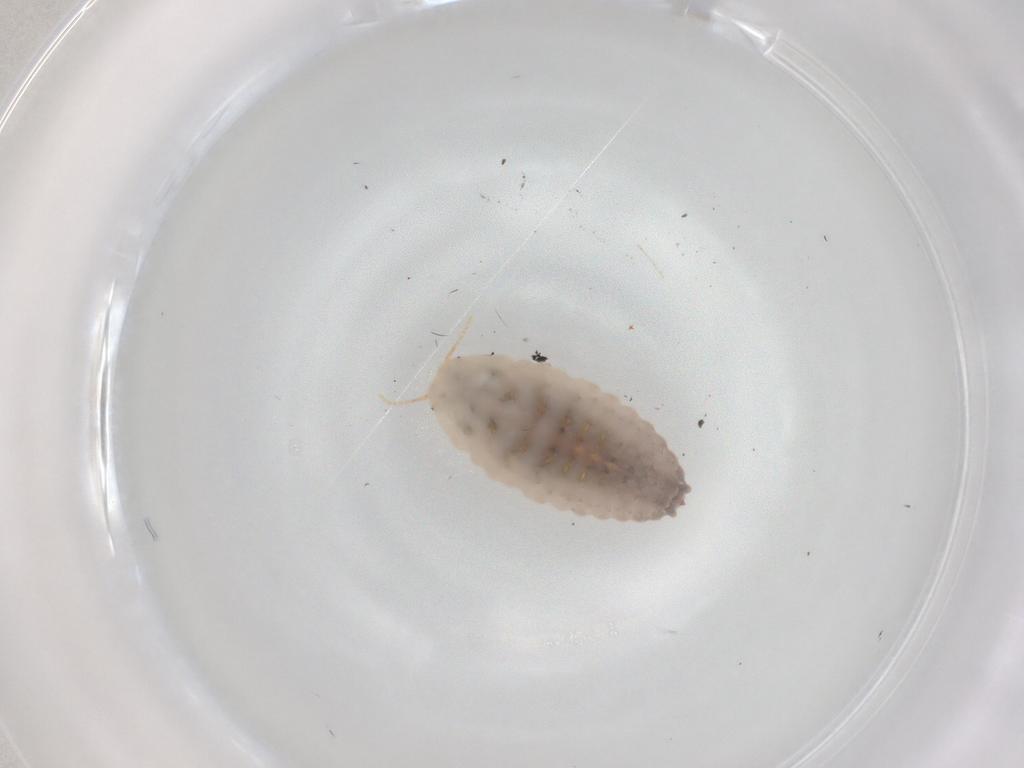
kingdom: Animalia
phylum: Arthropoda
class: Insecta
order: Hemiptera
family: Pseudococcidae
